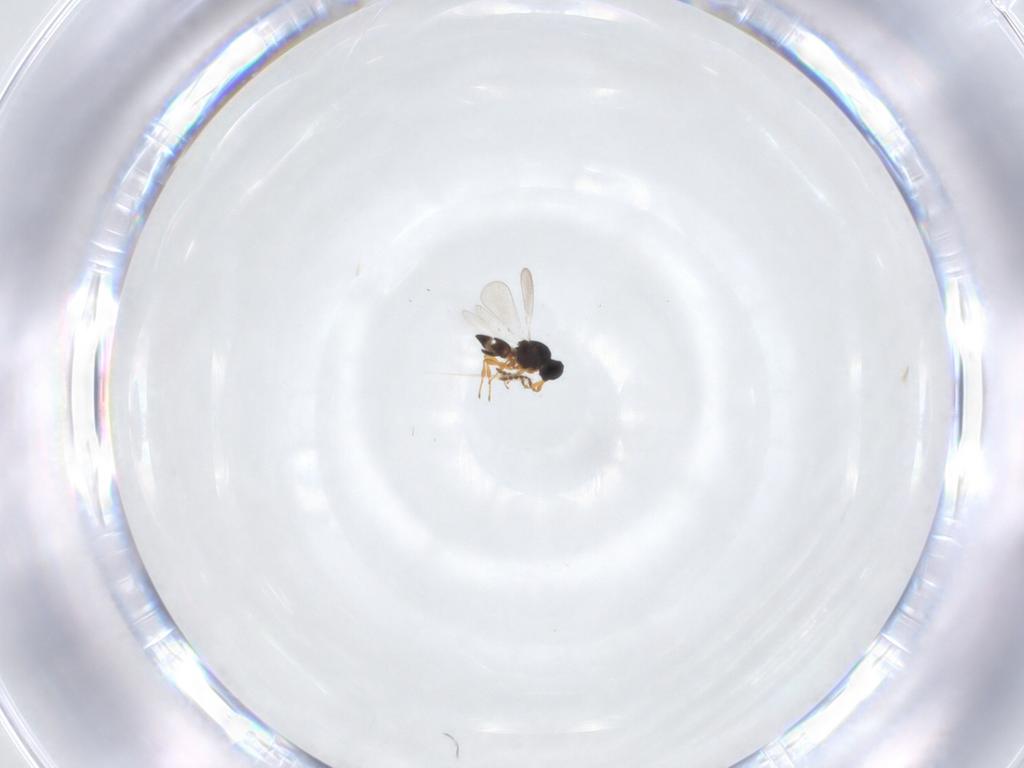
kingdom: Animalia
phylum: Arthropoda
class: Insecta
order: Hymenoptera
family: Platygastridae
